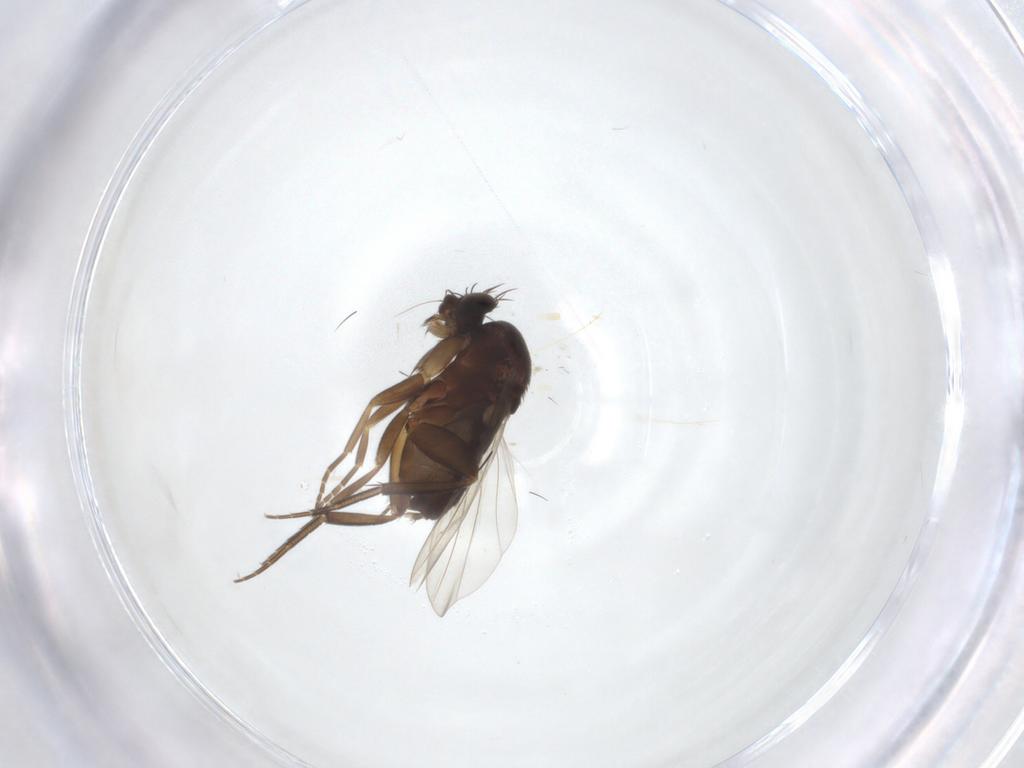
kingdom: Animalia
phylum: Arthropoda
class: Insecta
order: Diptera
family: Phoridae
